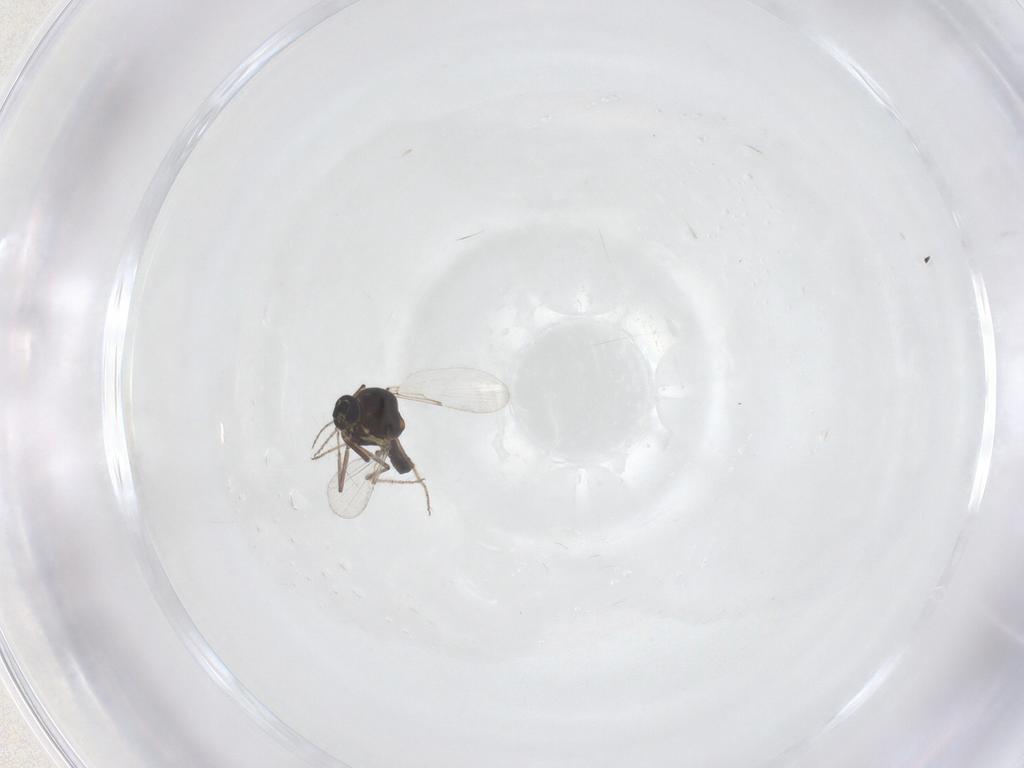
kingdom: Animalia
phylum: Arthropoda
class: Insecta
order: Diptera
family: Ceratopogonidae
